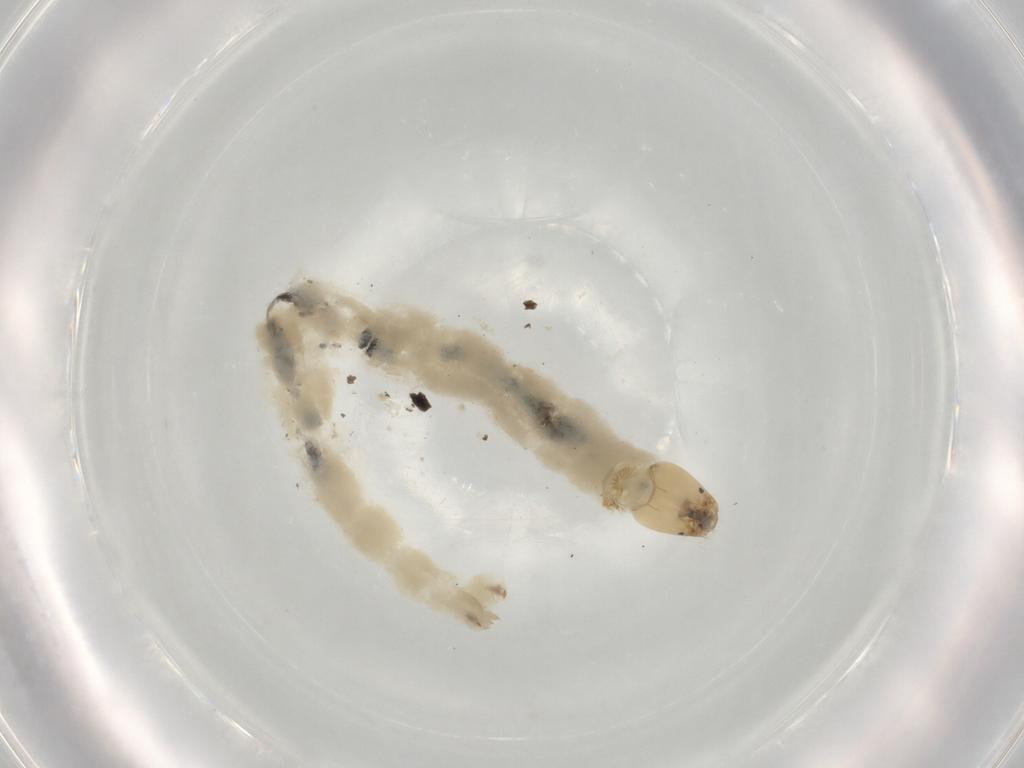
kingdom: Animalia
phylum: Arthropoda
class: Insecta
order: Diptera
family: Chironomidae
